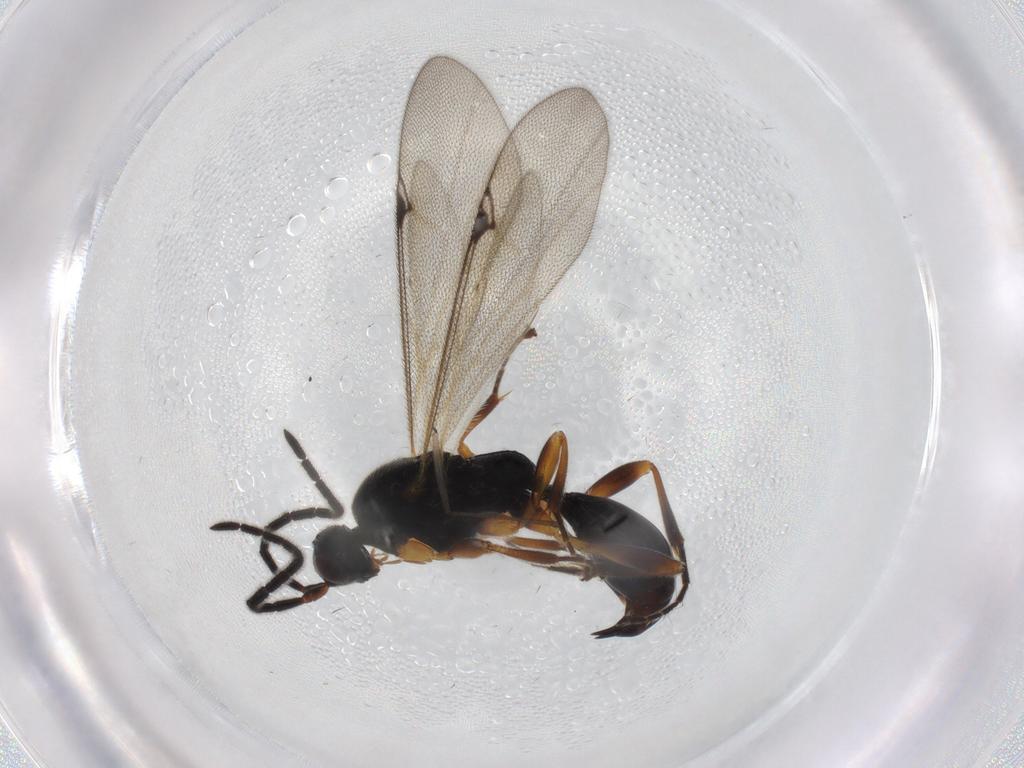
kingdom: Animalia
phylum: Arthropoda
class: Insecta
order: Hymenoptera
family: Proctotrupidae
